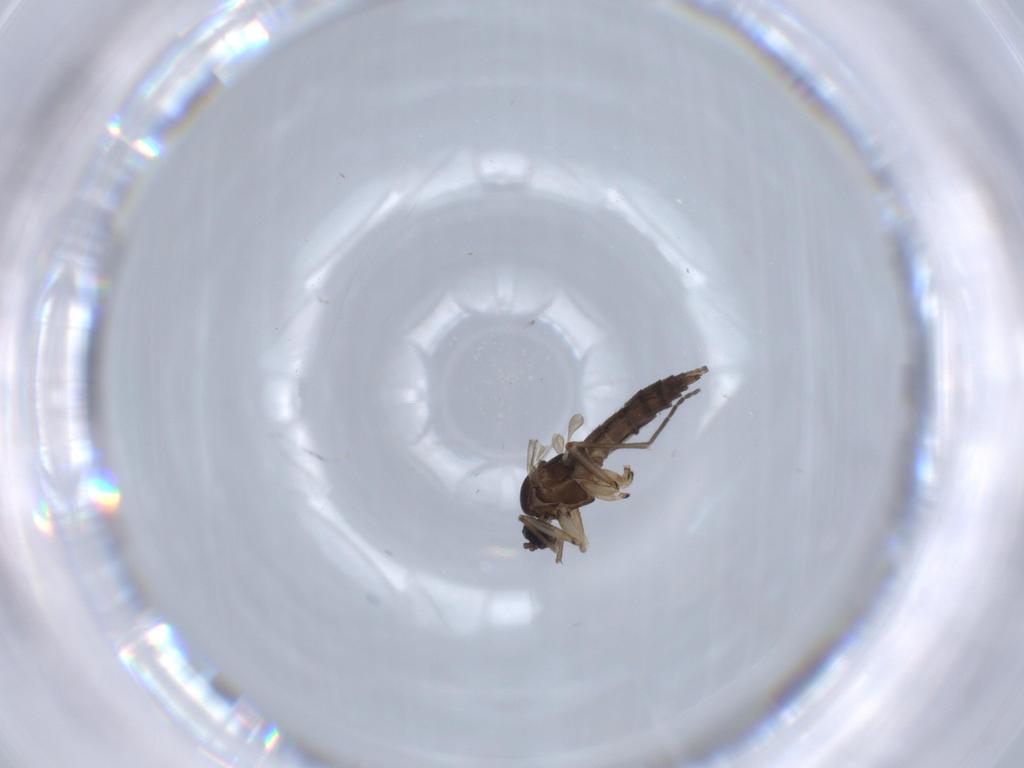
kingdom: Animalia
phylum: Arthropoda
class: Insecta
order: Diptera
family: Sciaridae
